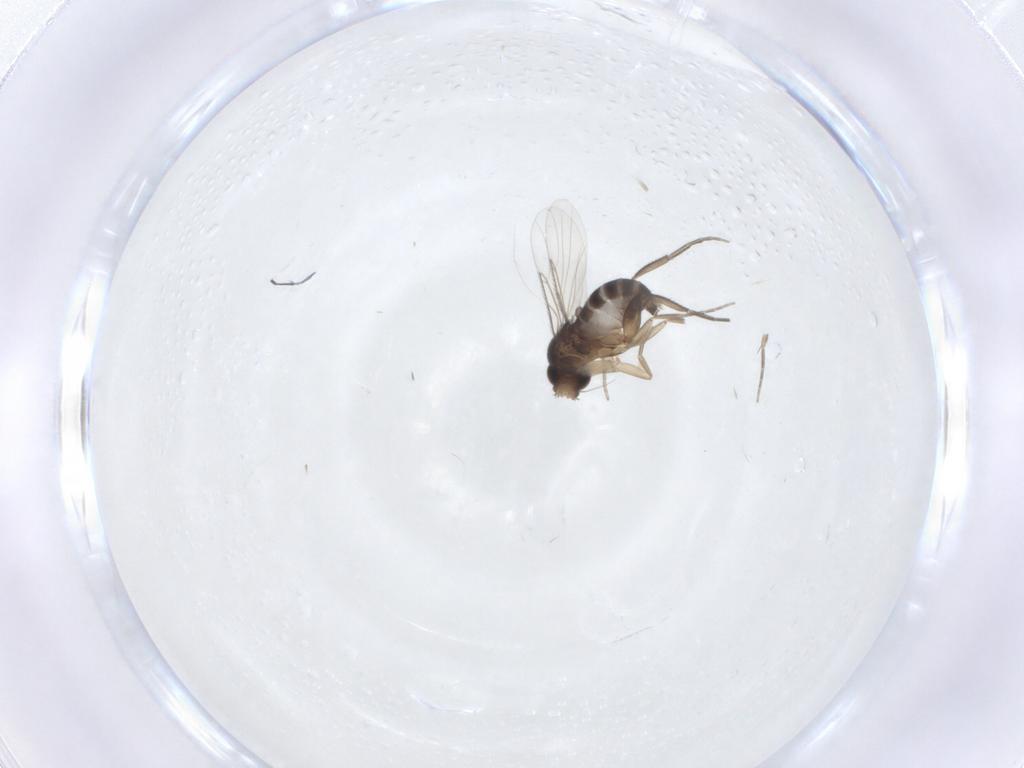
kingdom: Animalia
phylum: Arthropoda
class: Insecta
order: Diptera
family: Phoridae
